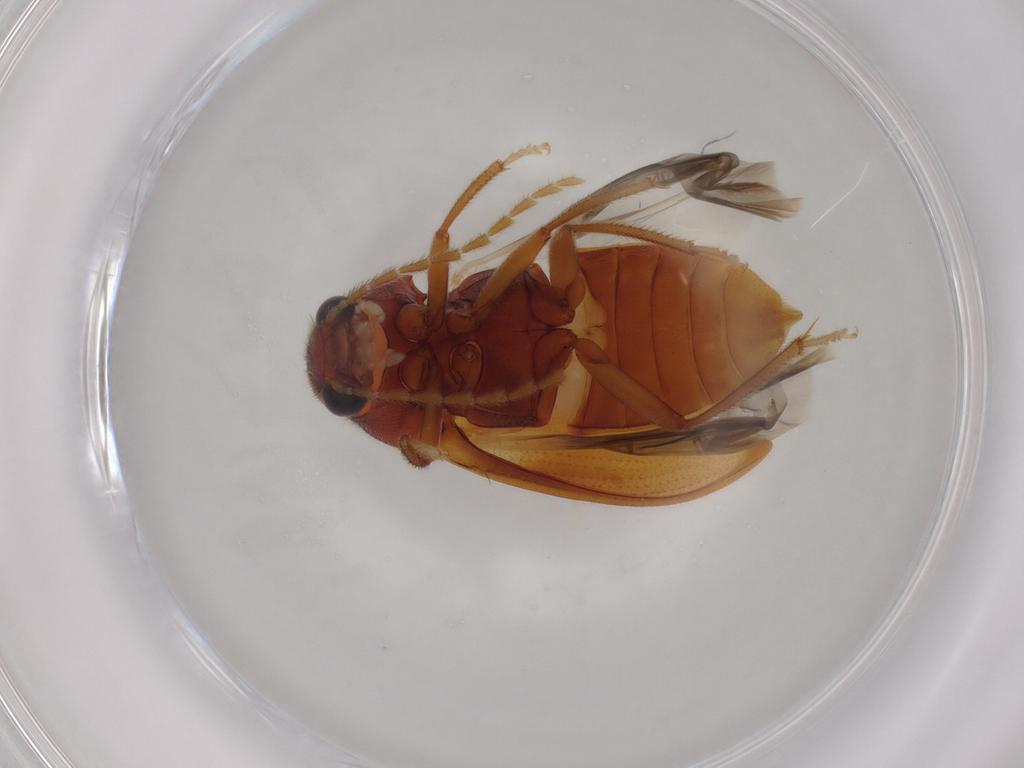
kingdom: Animalia
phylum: Arthropoda
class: Insecta
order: Coleoptera
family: Ptilodactylidae
